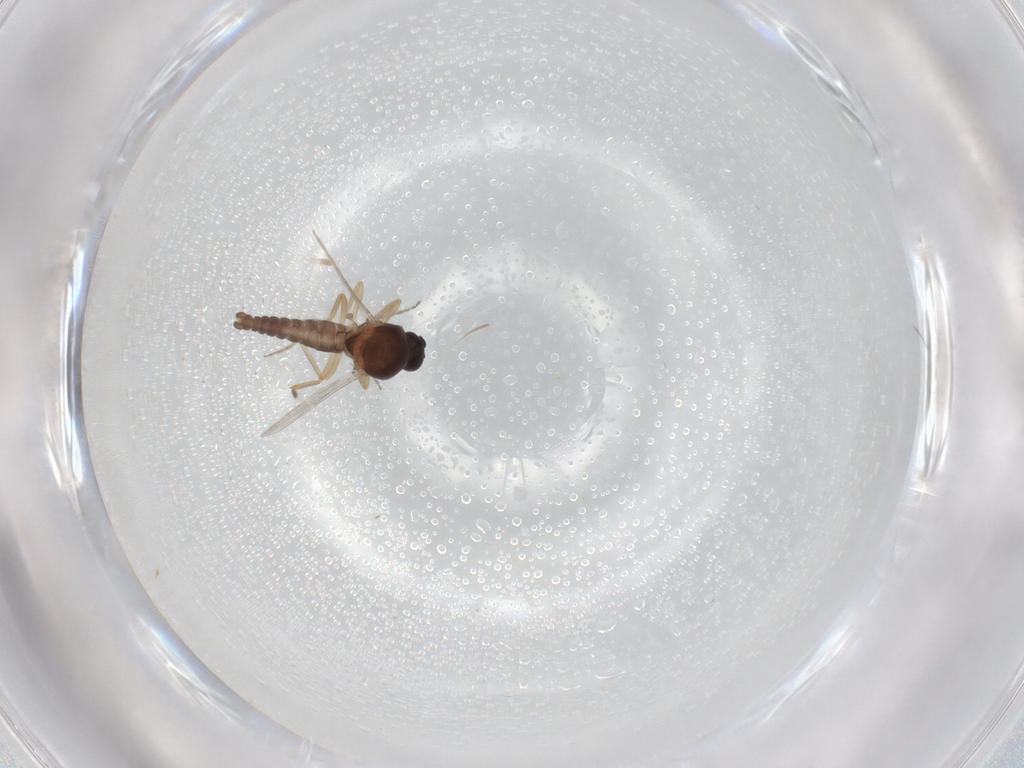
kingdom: Animalia
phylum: Arthropoda
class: Insecta
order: Diptera
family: Ceratopogonidae
